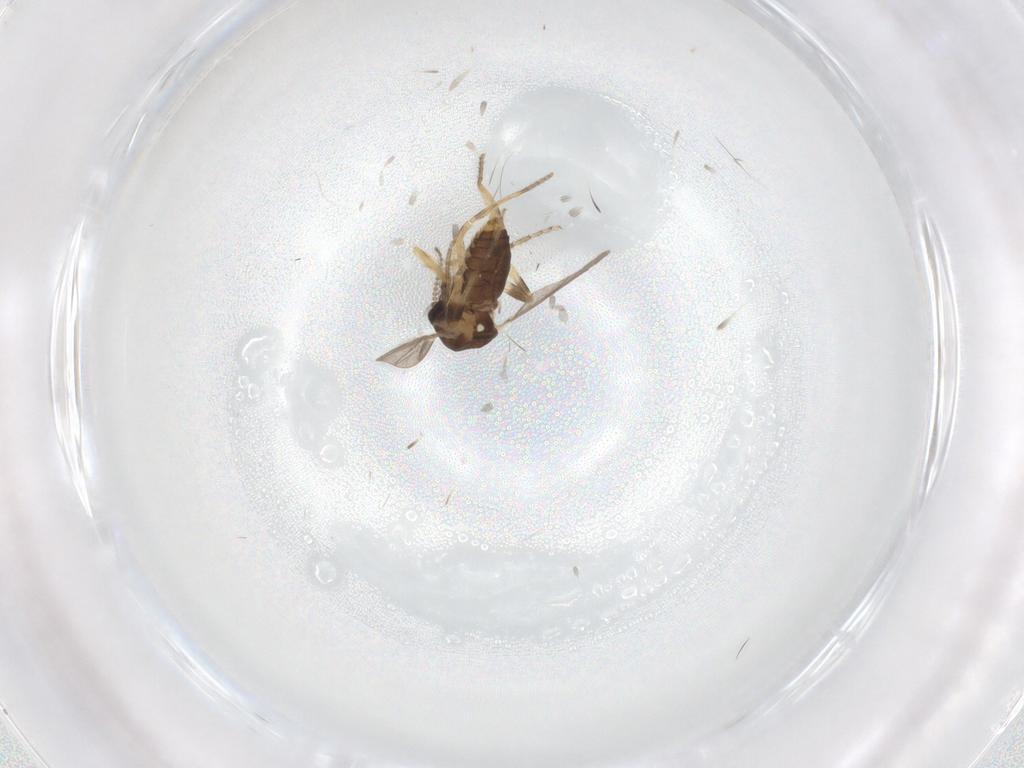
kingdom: Animalia
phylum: Arthropoda
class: Insecta
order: Diptera
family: Ceratopogonidae
